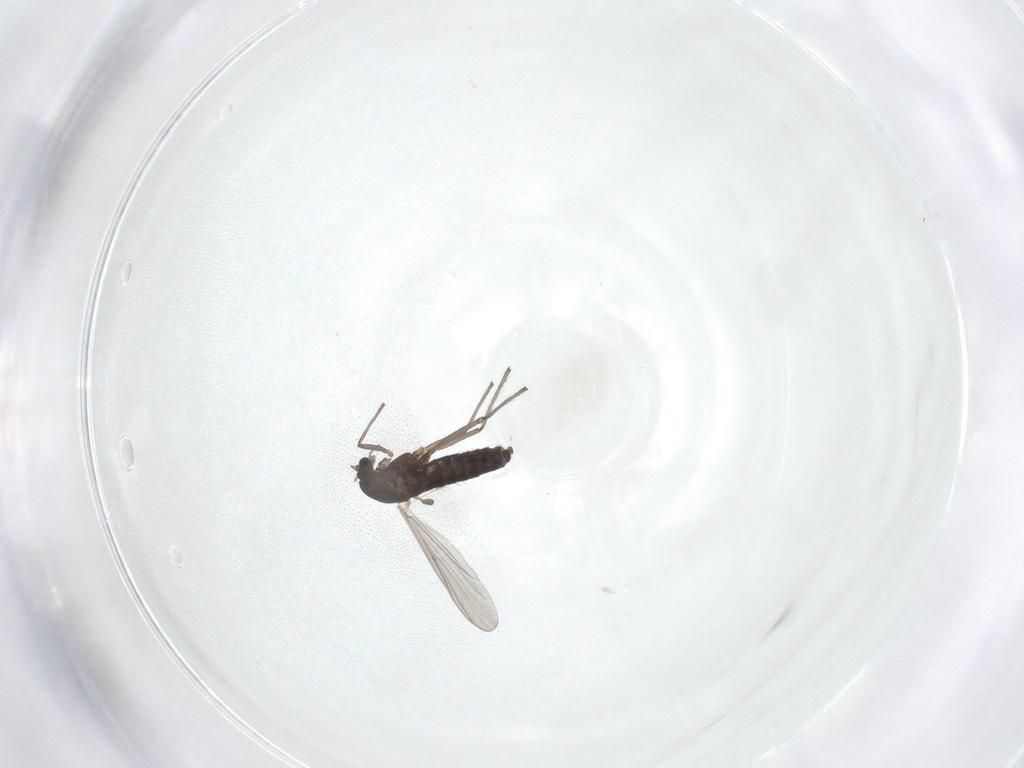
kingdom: Animalia
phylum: Arthropoda
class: Insecta
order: Diptera
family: Chironomidae
